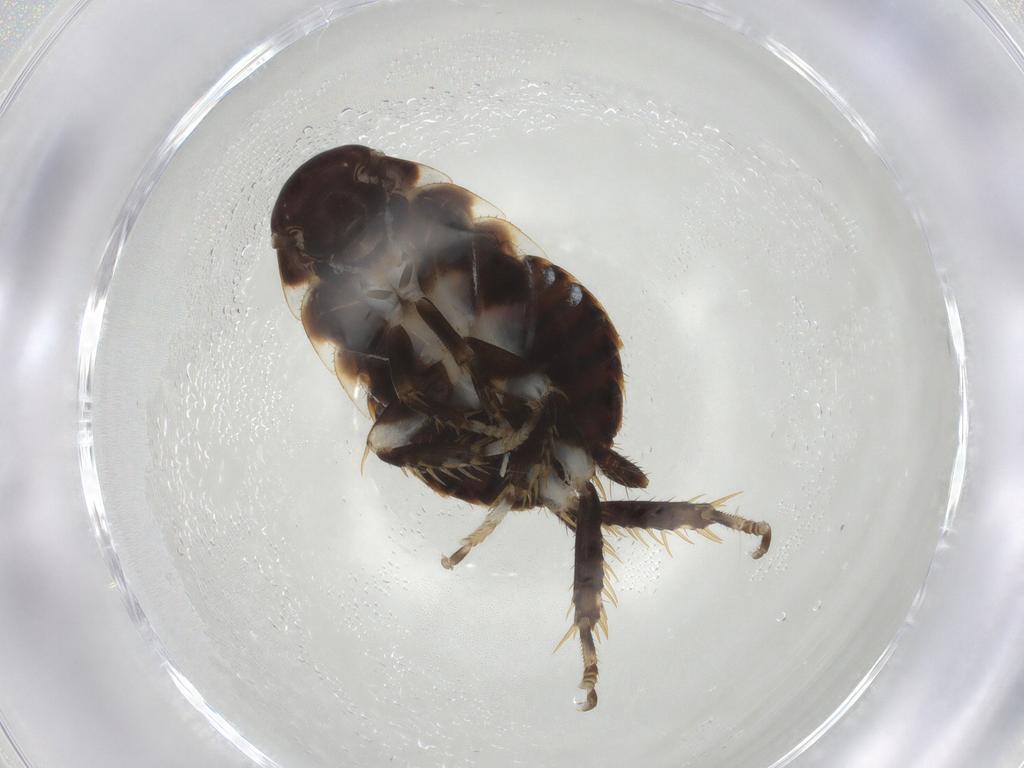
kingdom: Animalia
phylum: Arthropoda
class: Insecta
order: Blattodea
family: Blaberidae
